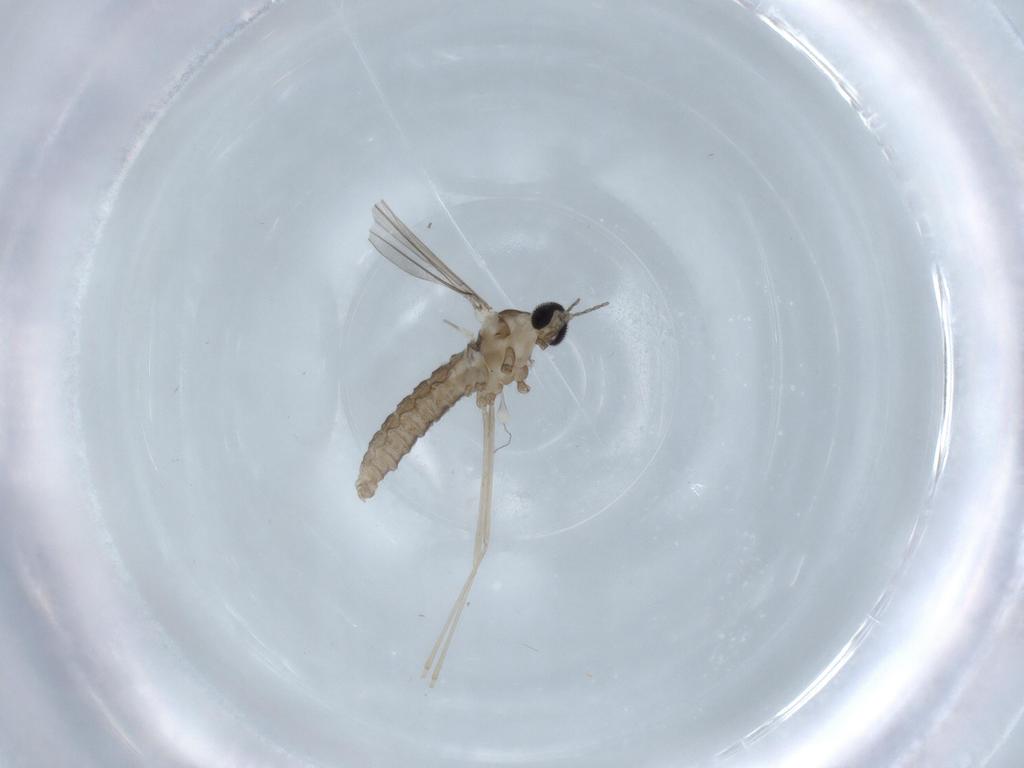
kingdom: Animalia
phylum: Arthropoda
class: Insecta
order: Diptera
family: Cecidomyiidae
